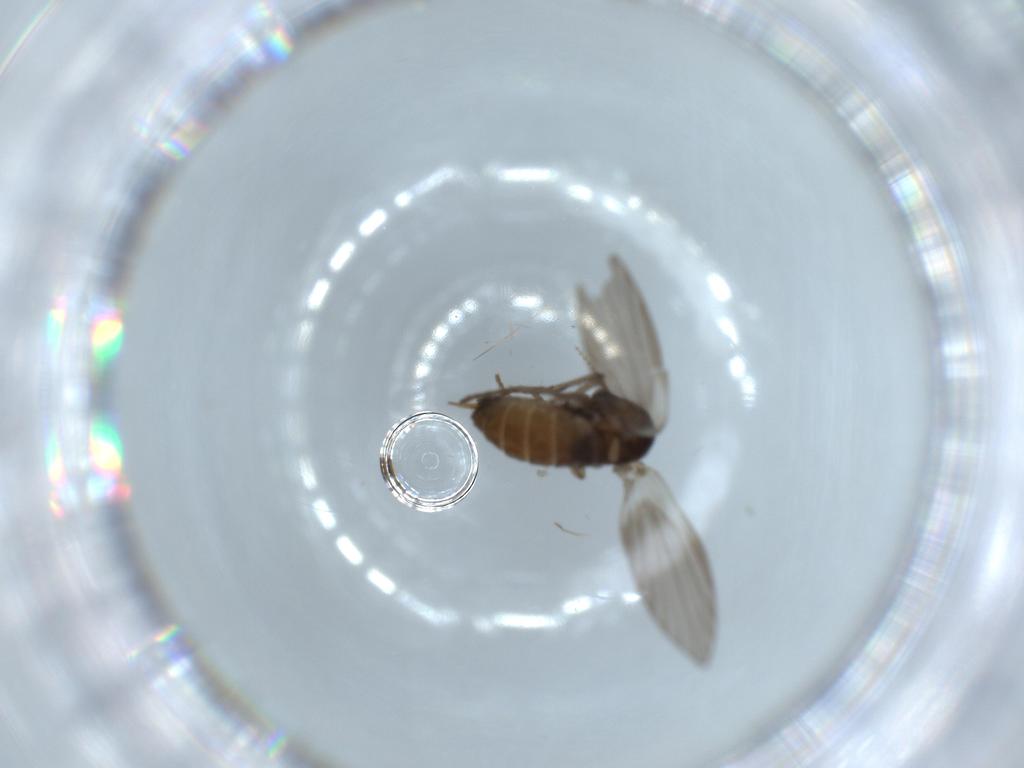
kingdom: Animalia
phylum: Arthropoda
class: Insecta
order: Diptera
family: Psychodidae
